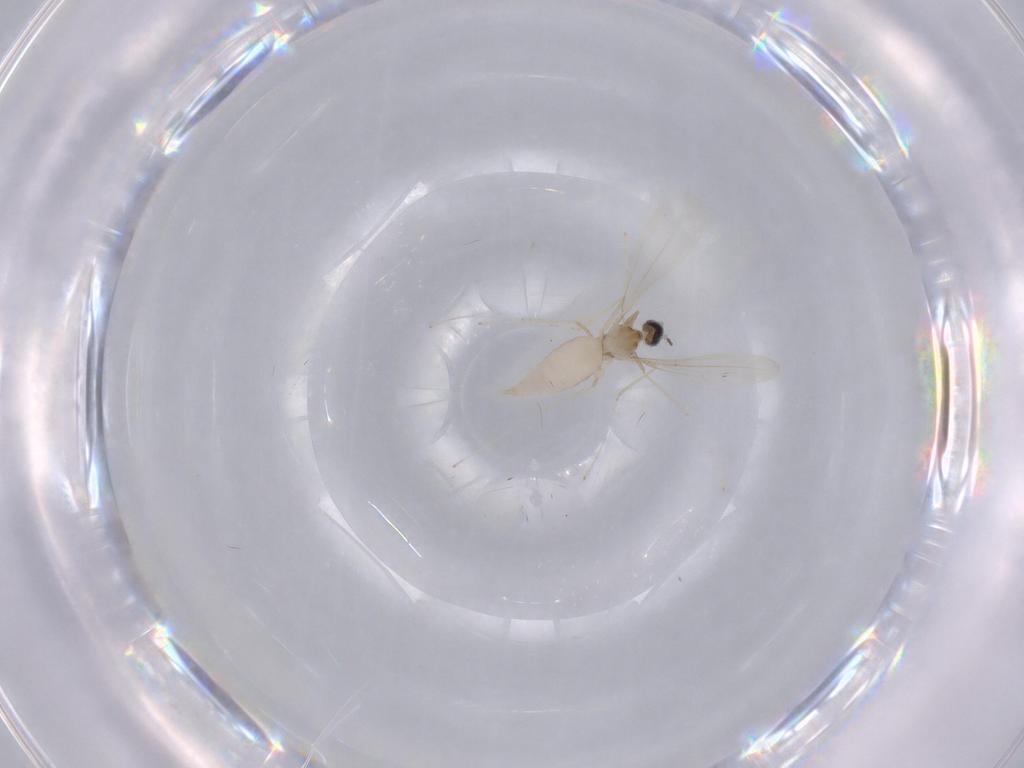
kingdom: Animalia
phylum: Arthropoda
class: Insecta
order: Diptera
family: Cecidomyiidae
